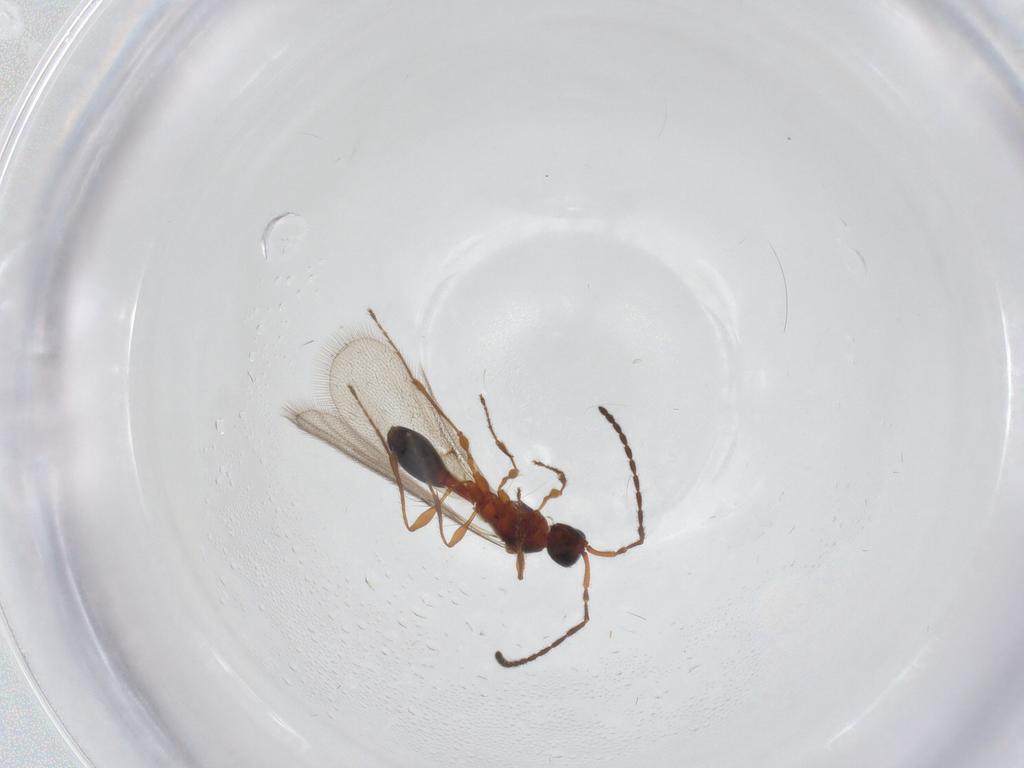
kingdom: Animalia
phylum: Arthropoda
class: Insecta
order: Hymenoptera
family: Diapriidae
